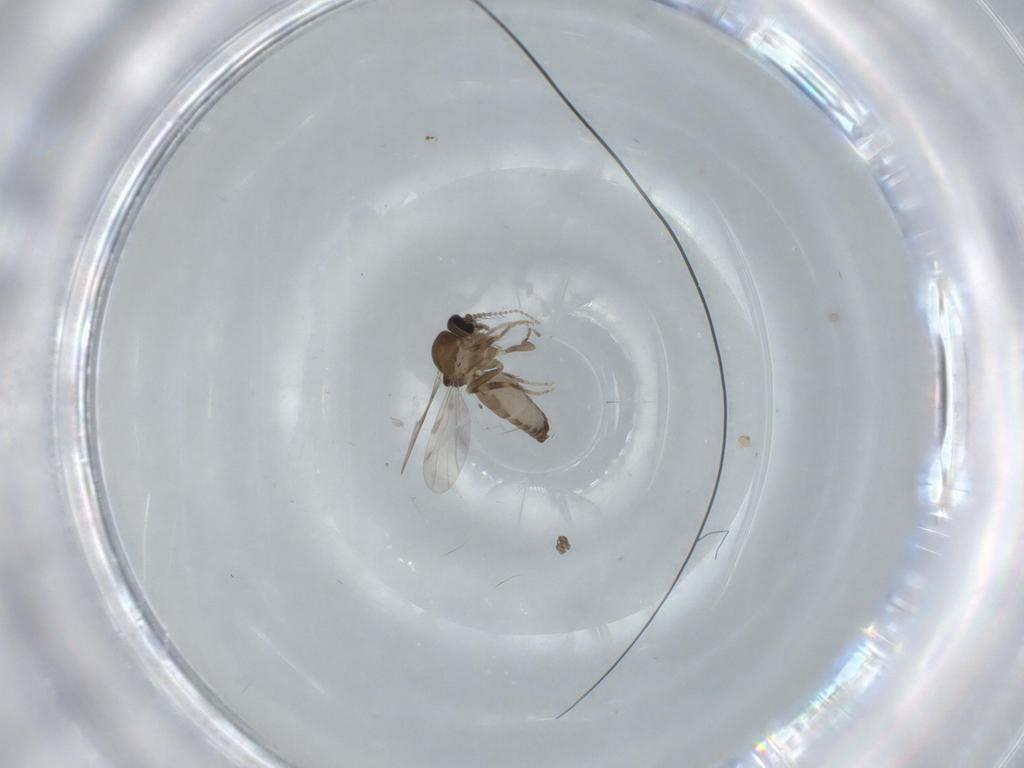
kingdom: Animalia
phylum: Arthropoda
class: Insecta
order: Diptera
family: Ceratopogonidae
